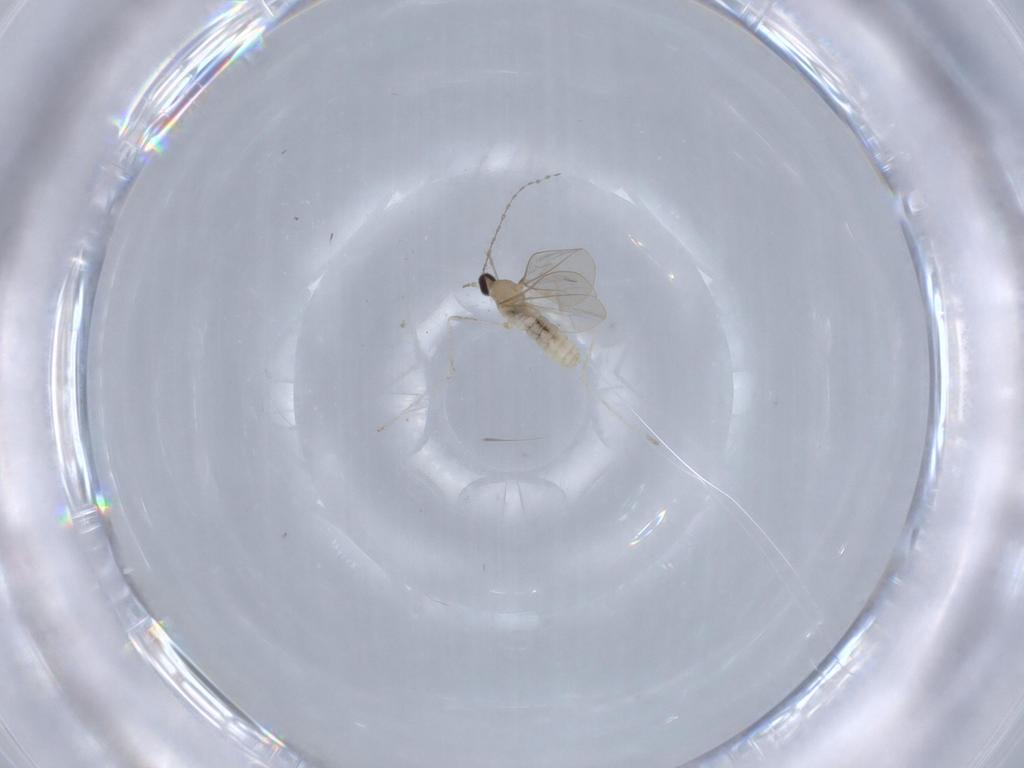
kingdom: Animalia
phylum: Arthropoda
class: Insecta
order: Diptera
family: Cecidomyiidae
